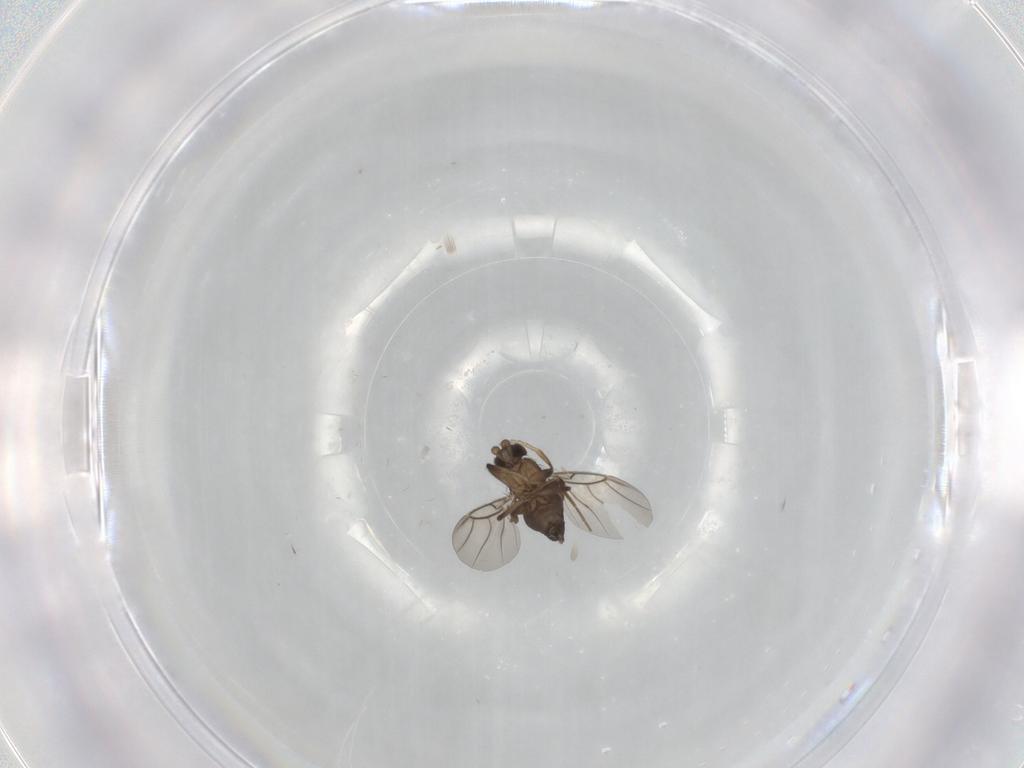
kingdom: Animalia
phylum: Arthropoda
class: Insecta
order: Diptera
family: Phoridae
